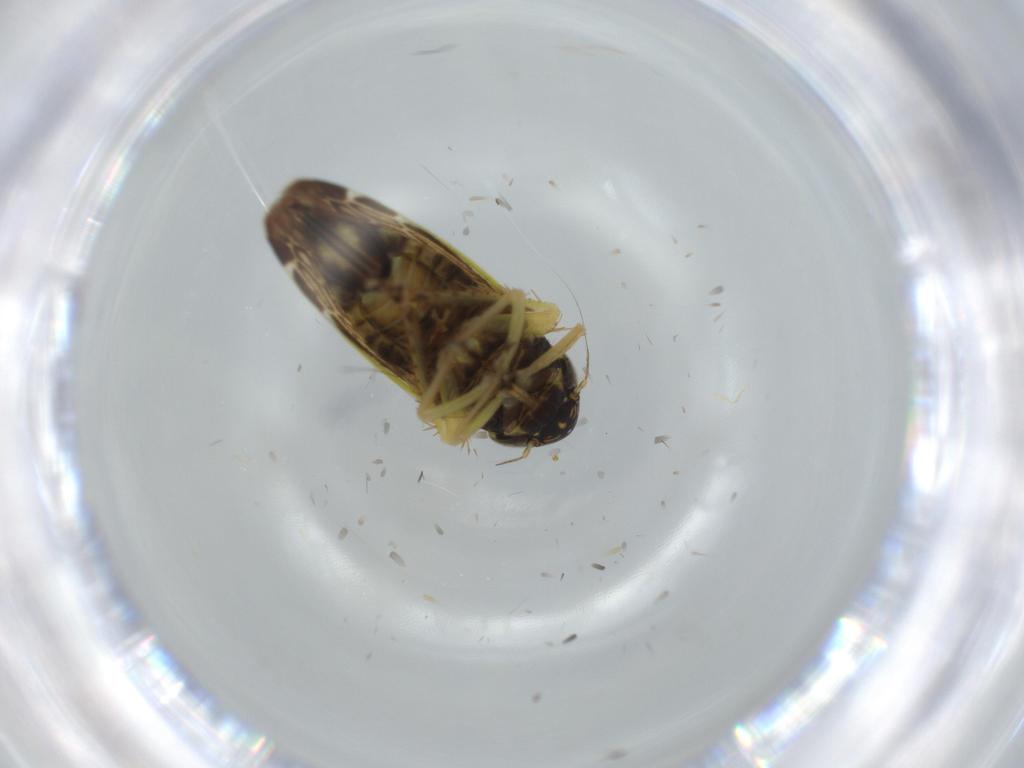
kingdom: Animalia
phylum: Arthropoda
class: Insecta
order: Hemiptera
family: Cicadellidae
